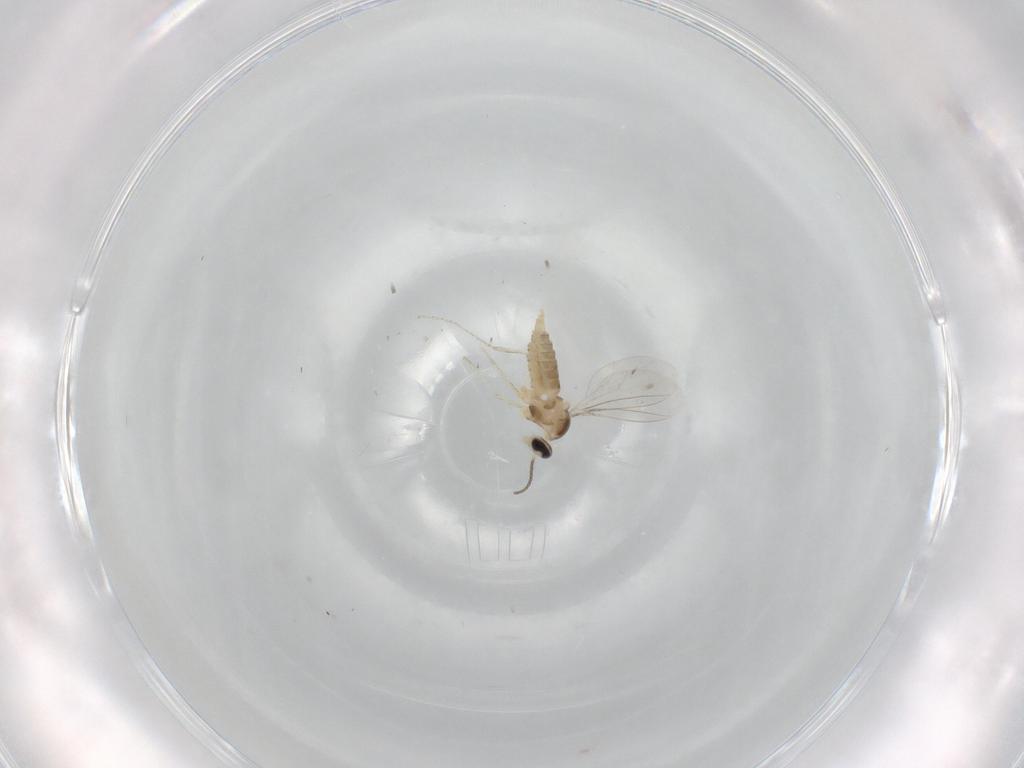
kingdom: Animalia
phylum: Arthropoda
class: Insecta
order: Diptera
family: Cecidomyiidae
